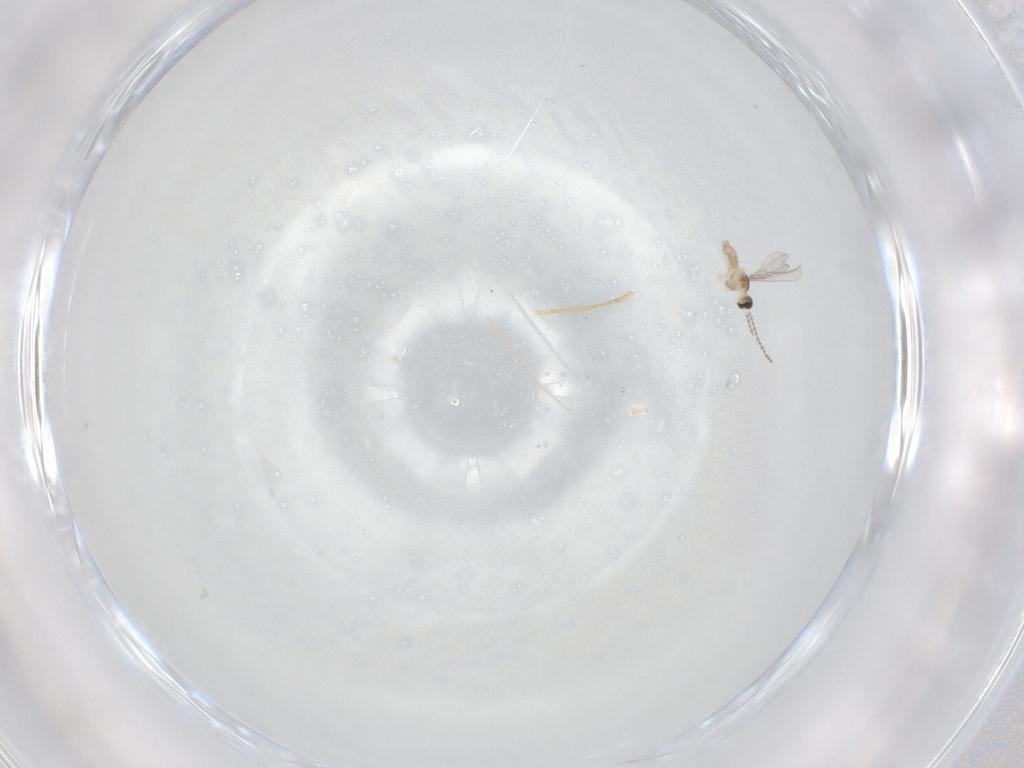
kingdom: Animalia
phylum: Arthropoda
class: Insecta
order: Diptera
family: Cecidomyiidae
